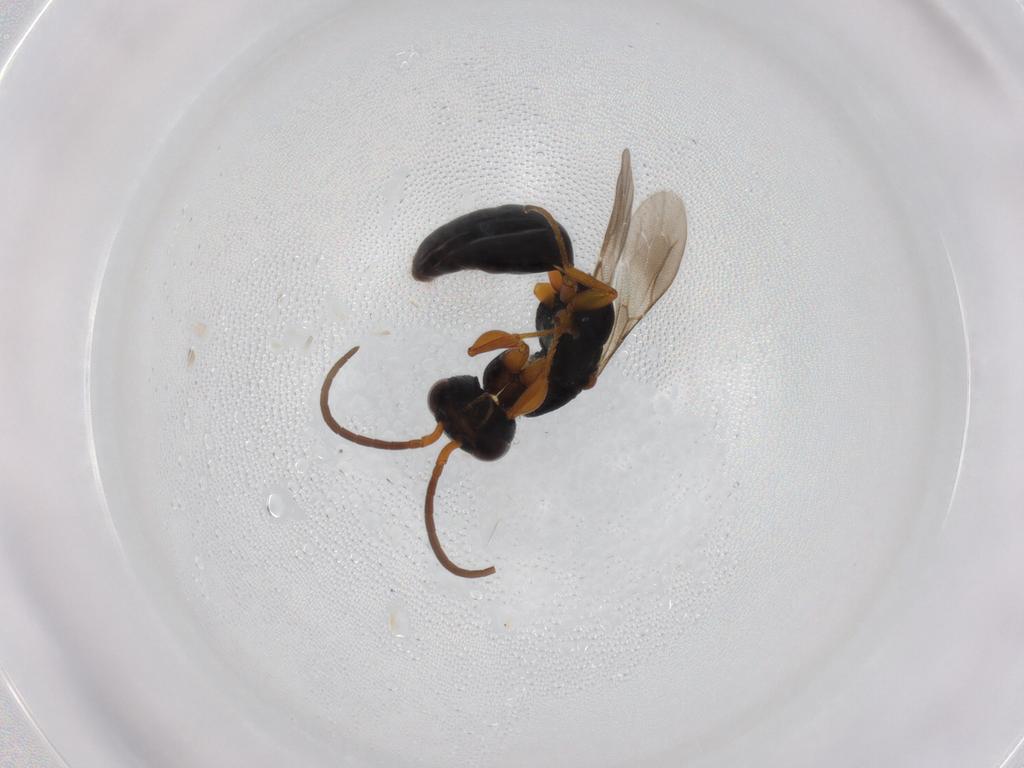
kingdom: Animalia
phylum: Arthropoda
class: Insecta
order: Hymenoptera
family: Bethylidae
